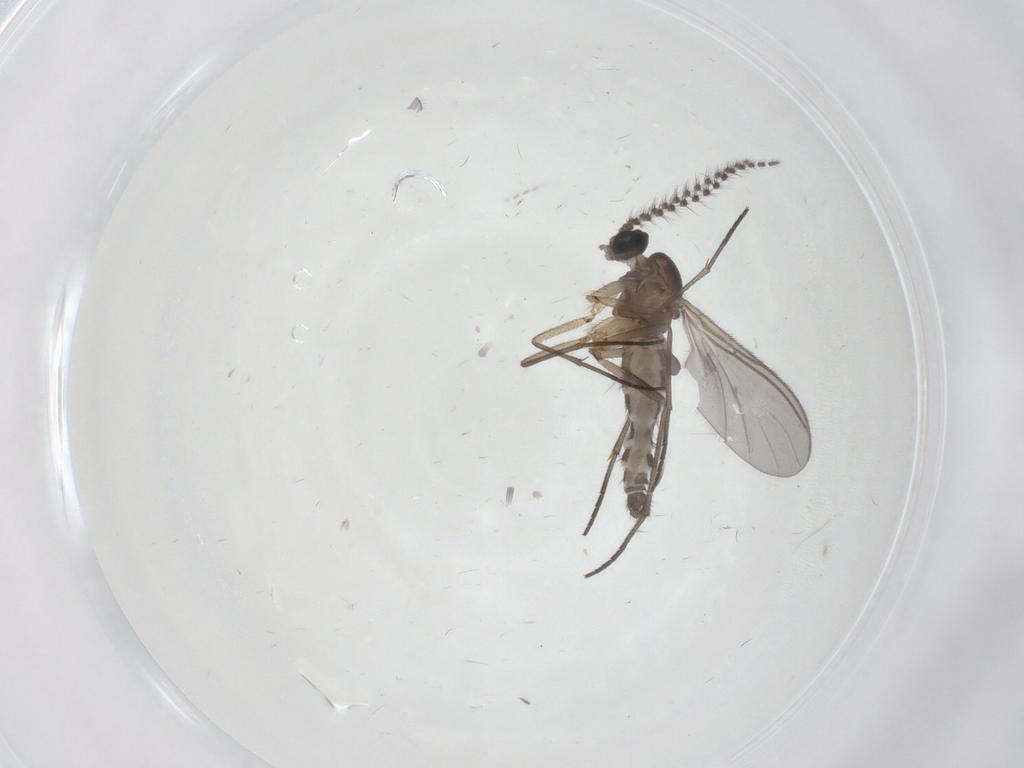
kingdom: Animalia
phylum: Arthropoda
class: Insecta
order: Diptera
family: Sciaridae
